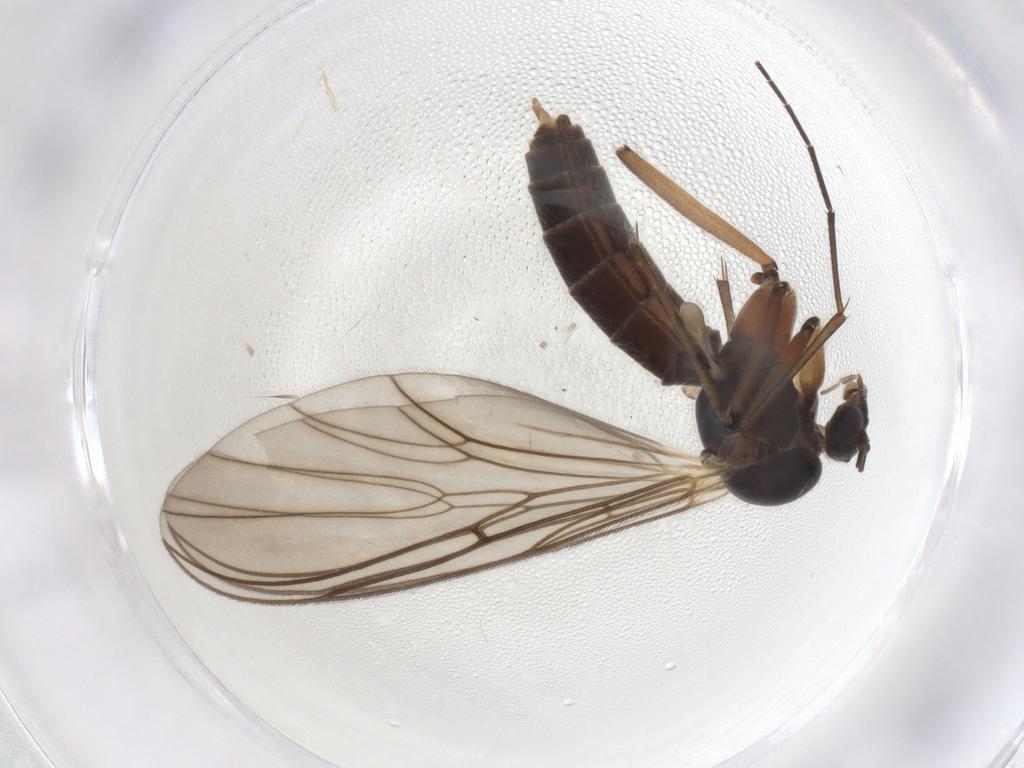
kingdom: Animalia
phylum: Arthropoda
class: Insecta
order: Diptera
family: Mycetophilidae
